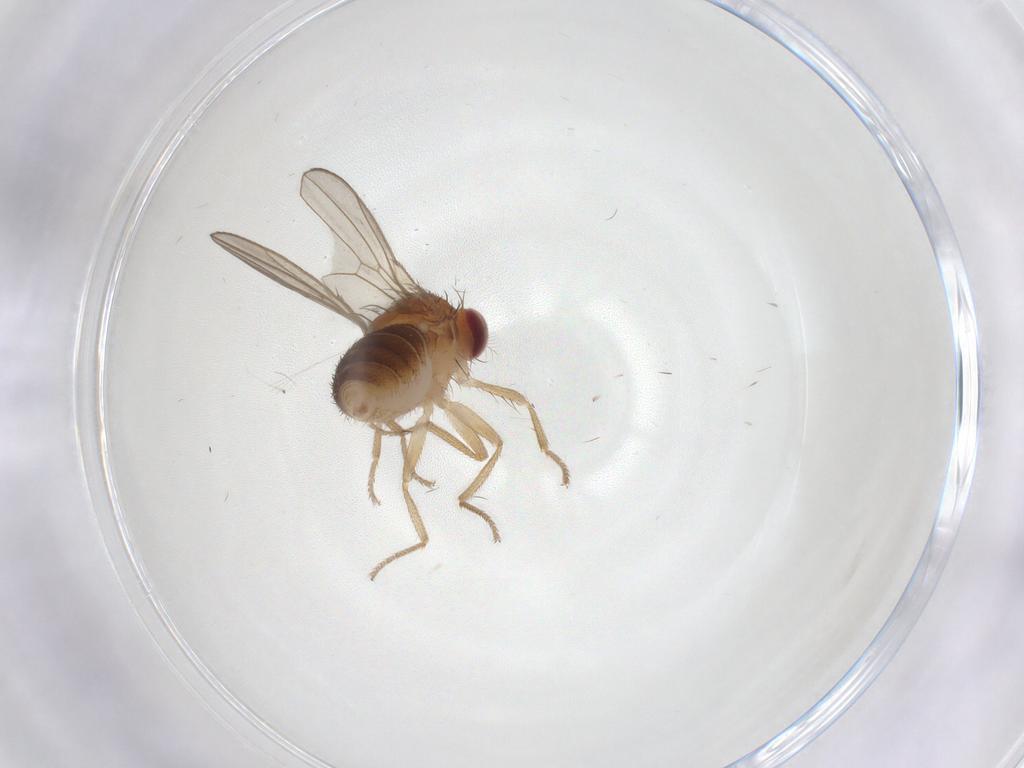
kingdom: Animalia
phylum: Arthropoda
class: Insecta
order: Diptera
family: Drosophilidae
